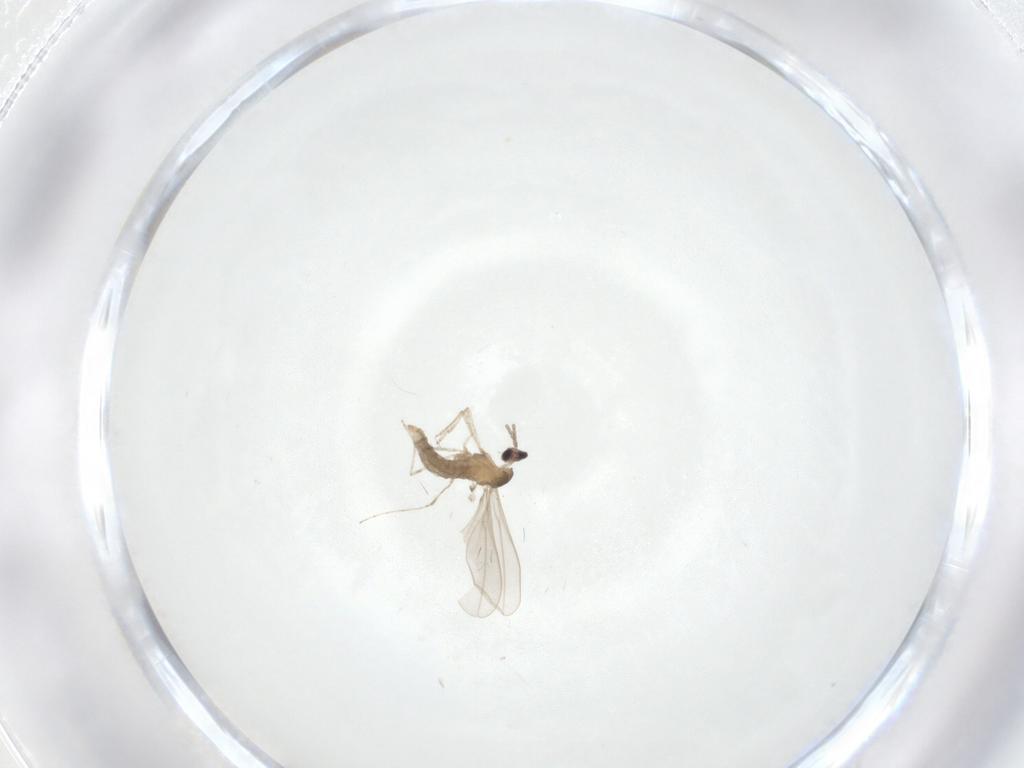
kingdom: Animalia
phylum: Arthropoda
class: Insecta
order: Diptera
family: Cecidomyiidae
